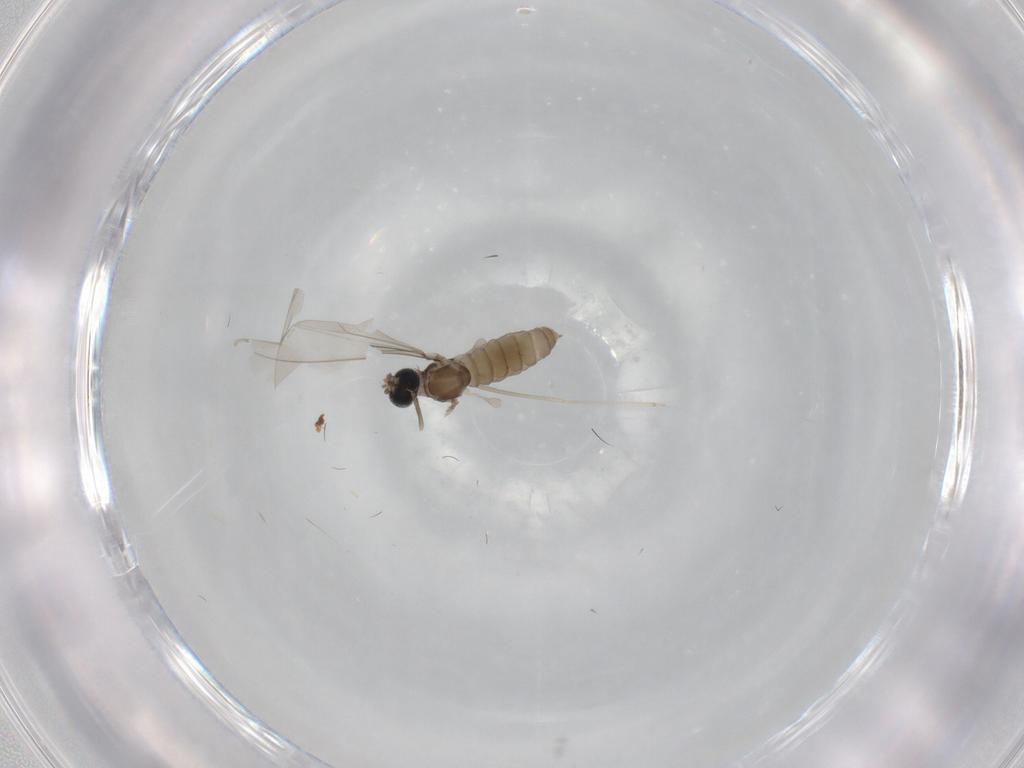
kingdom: Animalia
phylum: Arthropoda
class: Insecta
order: Diptera
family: Cecidomyiidae
